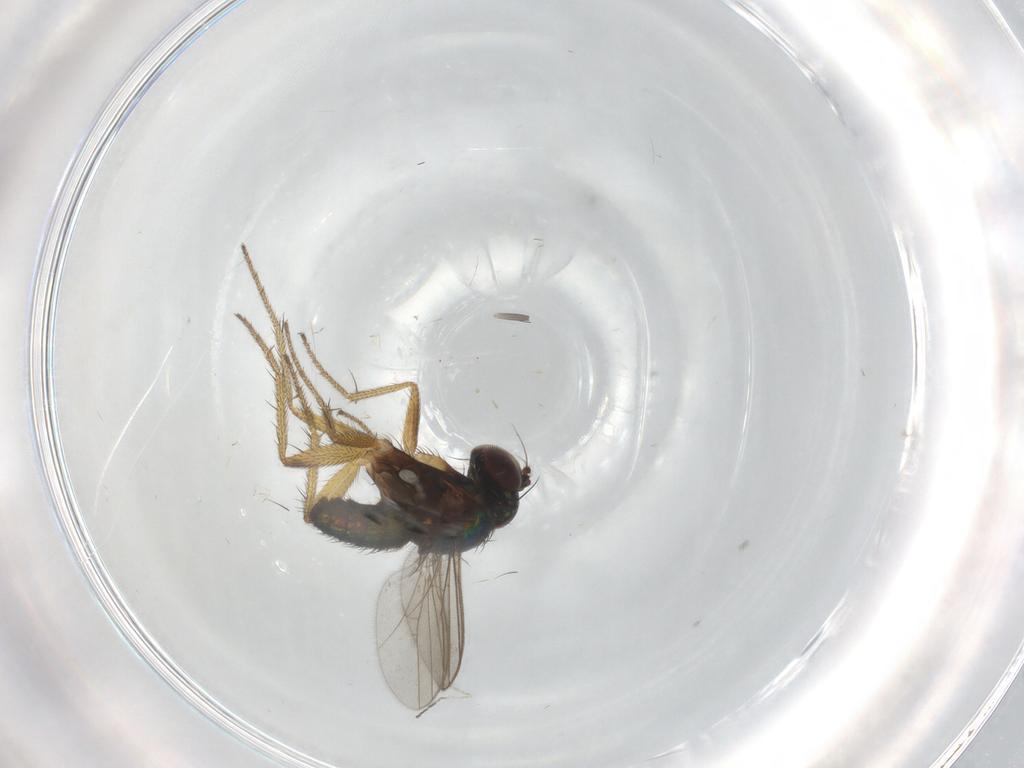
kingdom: Animalia
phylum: Arthropoda
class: Insecta
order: Diptera
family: Dolichopodidae
